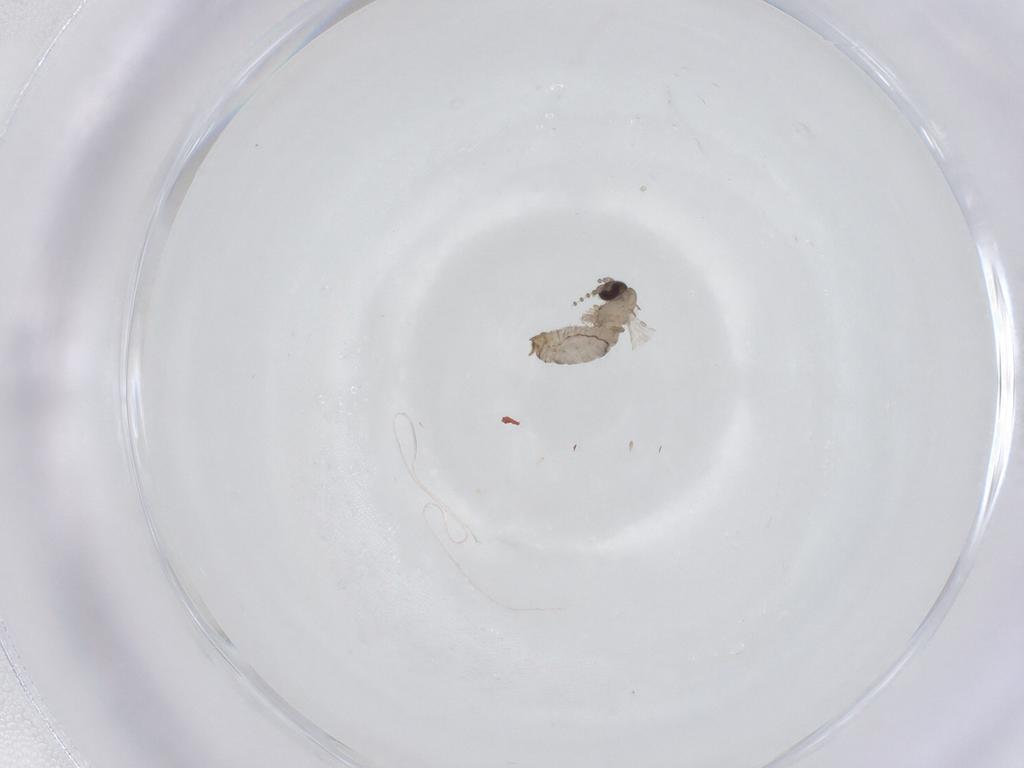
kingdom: Animalia
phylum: Arthropoda
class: Insecta
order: Diptera
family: Psychodidae
